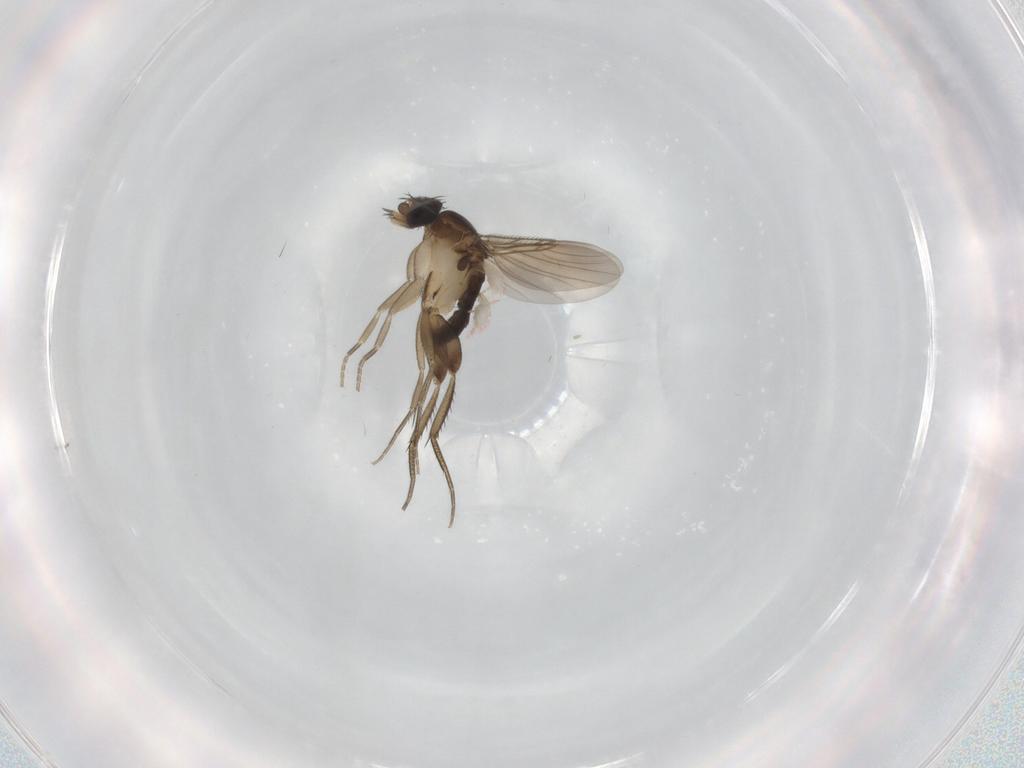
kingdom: Animalia
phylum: Arthropoda
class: Insecta
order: Diptera
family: Phoridae
